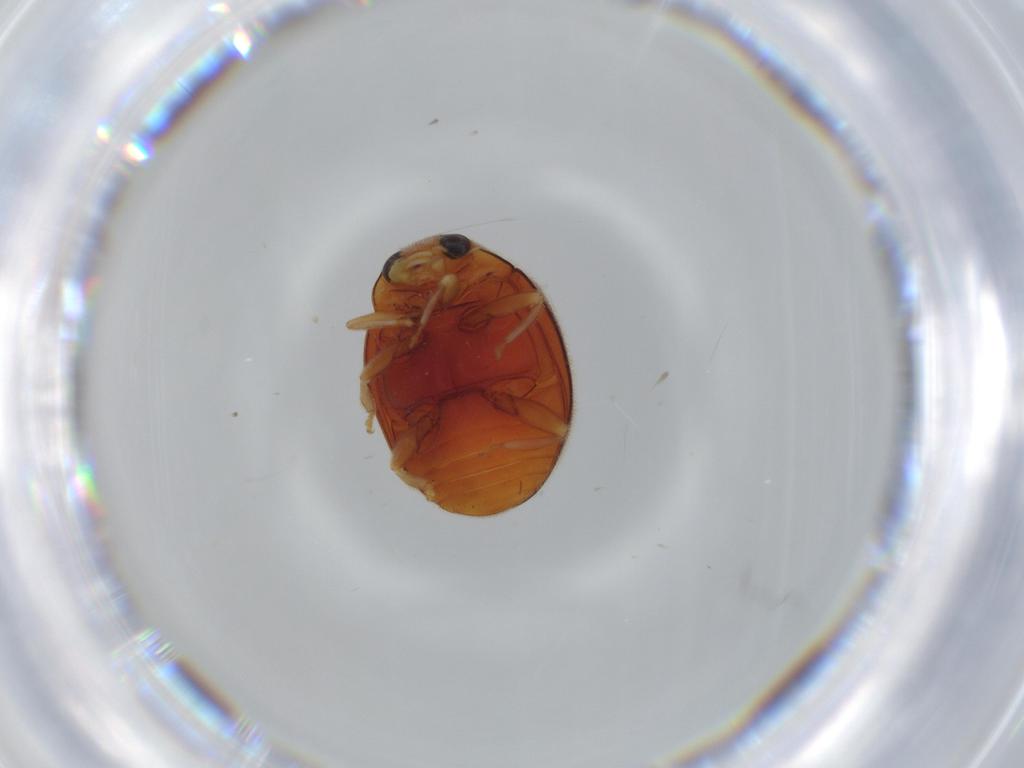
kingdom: Animalia
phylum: Arthropoda
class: Insecta
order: Coleoptera
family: Coccinellidae
